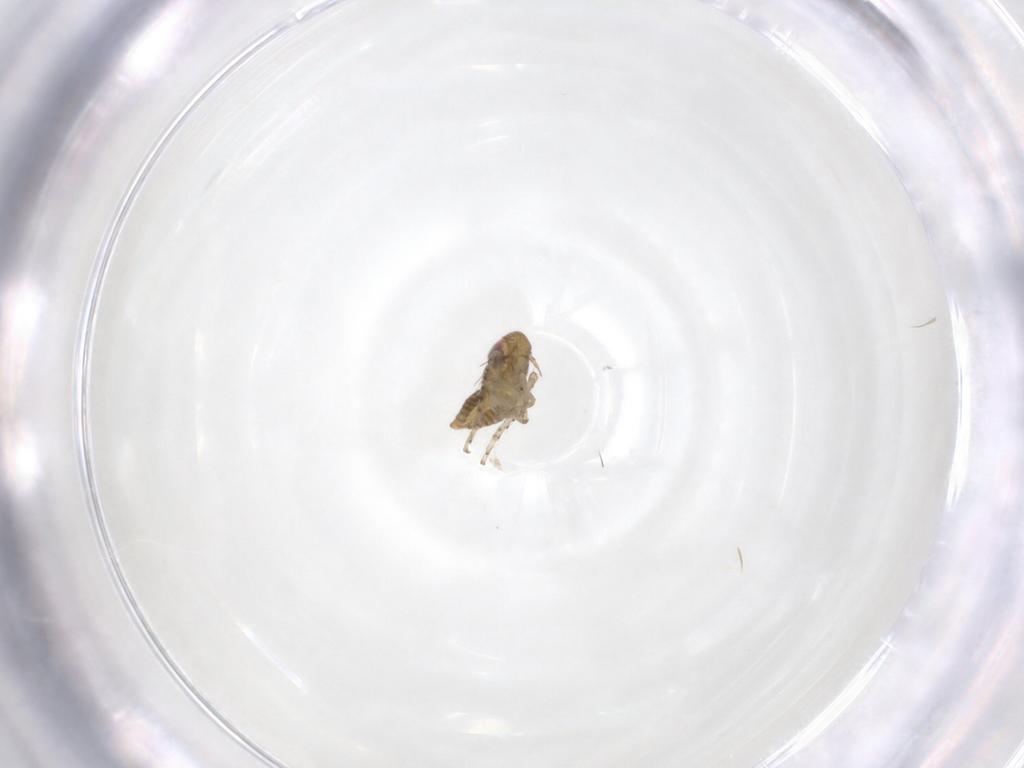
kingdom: Animalia
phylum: Arthropoda
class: Insecta
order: Hemiptera
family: Cicadellidae
